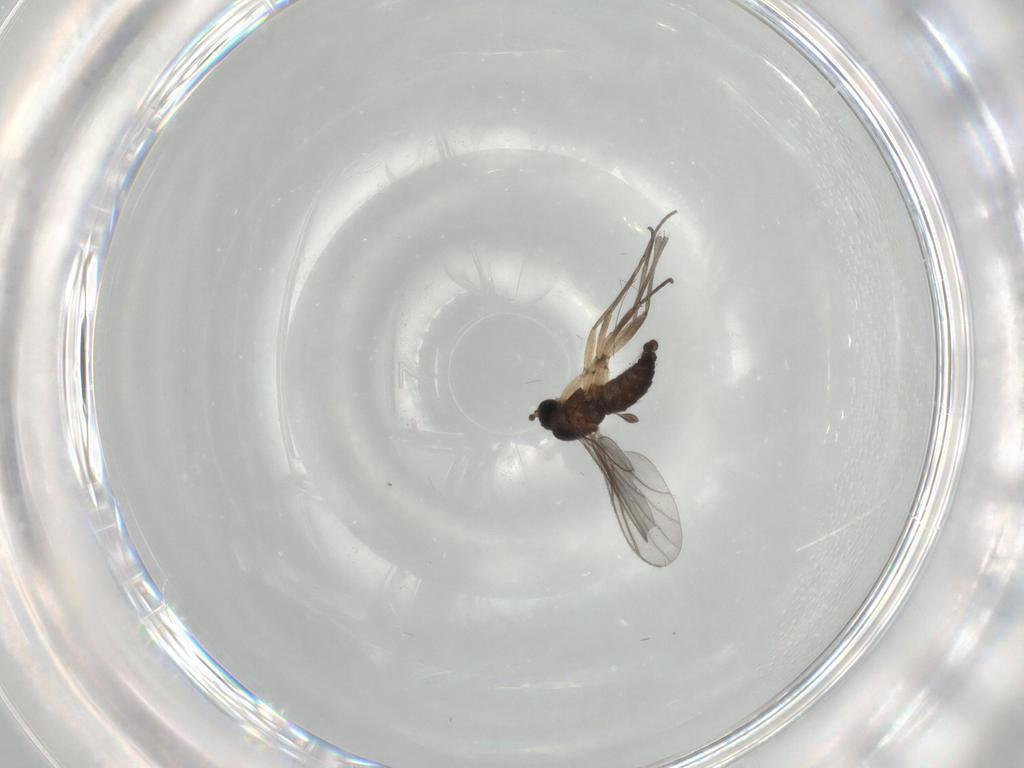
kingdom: Animalia
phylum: Arthropoda
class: Insecta
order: Diptera
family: Sciaridae
